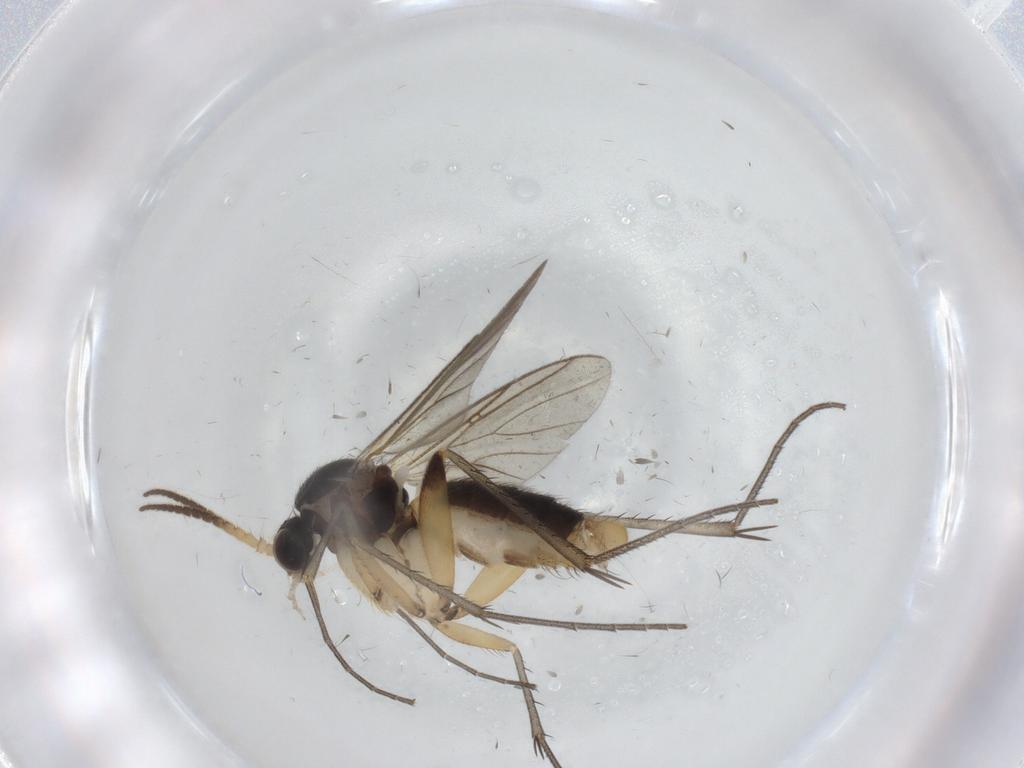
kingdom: Animalia
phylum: Arthropoda
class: Insecta
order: Diptera
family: Mycetophilidae
